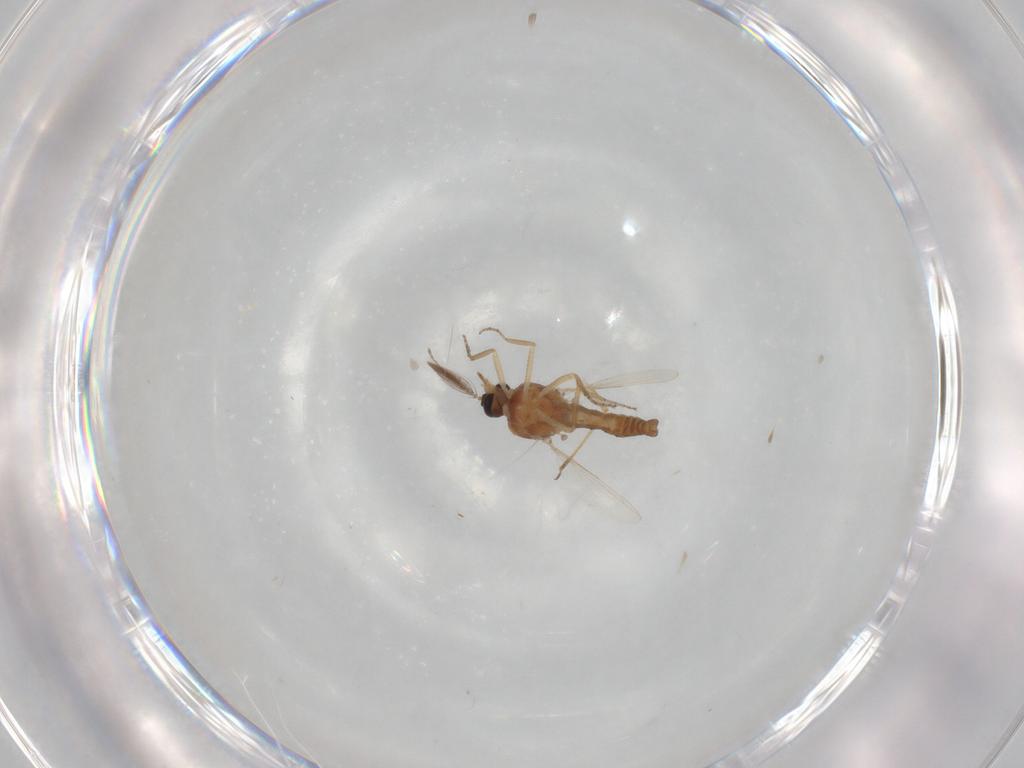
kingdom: Animalia
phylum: Arthropoda
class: Insecta
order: Diptera
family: Ceratopogonidae
